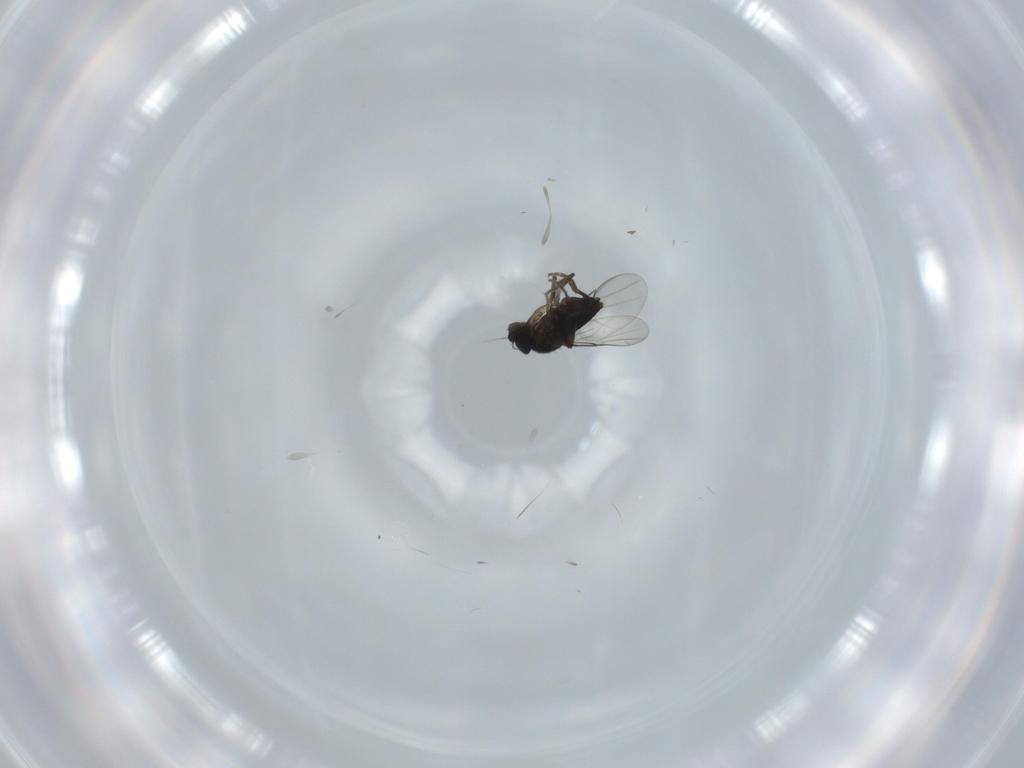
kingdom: Animalia
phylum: Arthropoda
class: Insecta
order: Diptera
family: Phoridae
